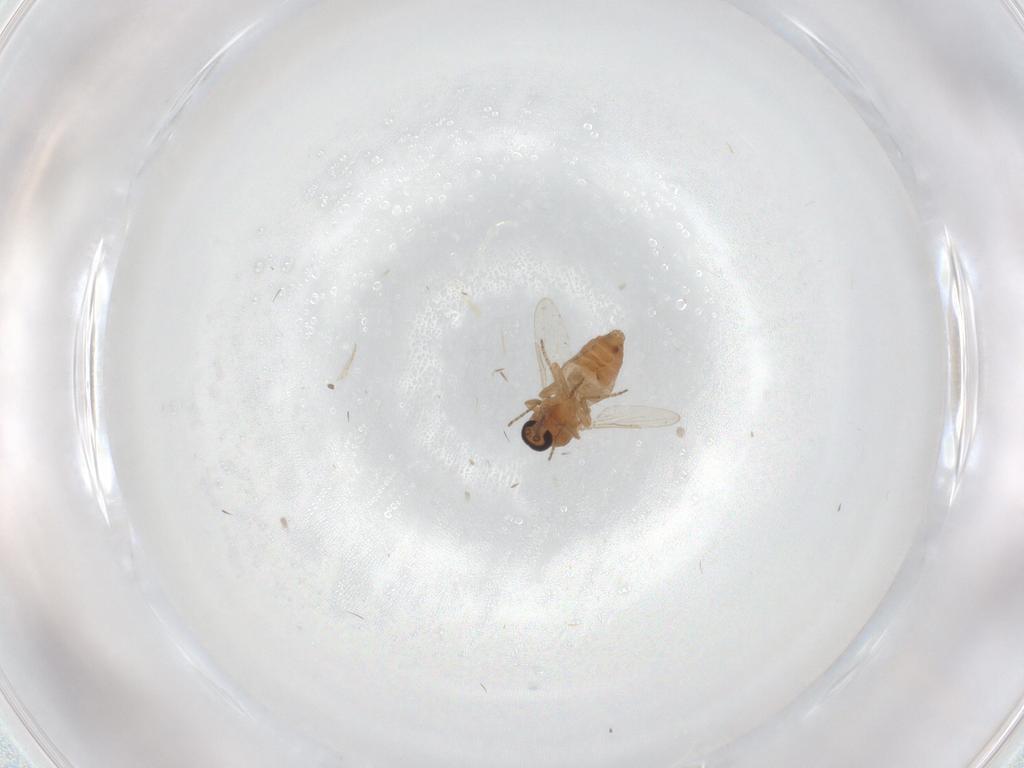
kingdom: Animalia
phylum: Arthropoda
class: Insecta
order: Diptera
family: Ceratopogonidae
